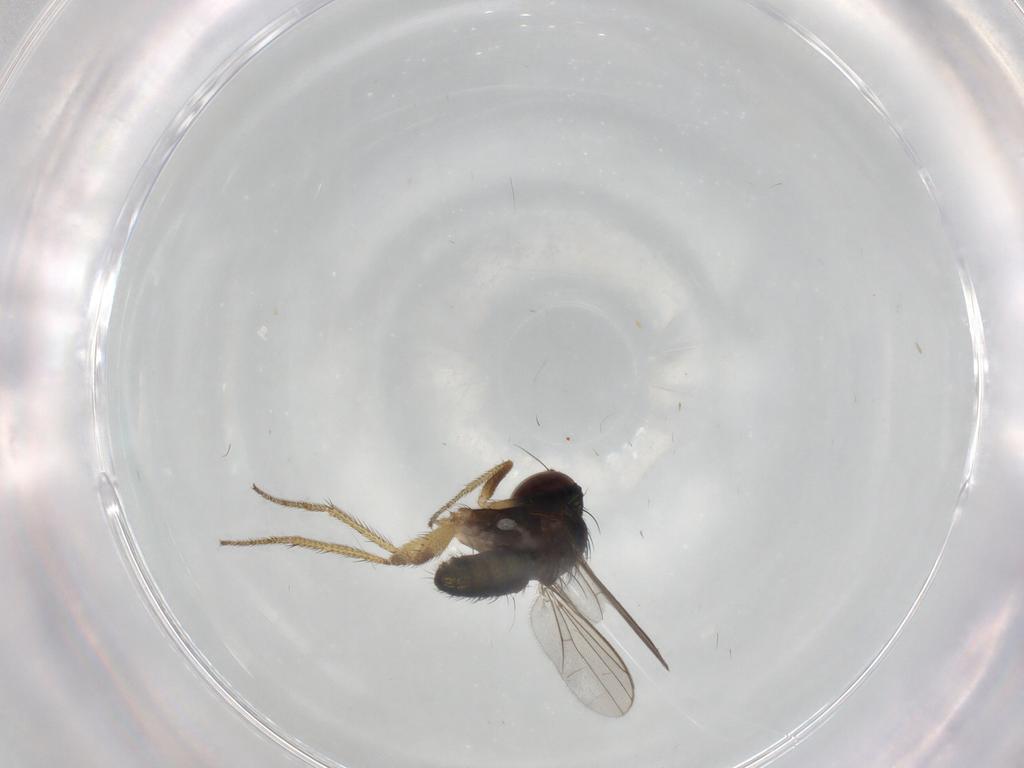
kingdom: Animalia
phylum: Arthropoda
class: Insecta
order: Diptera
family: Dolichopodidae
